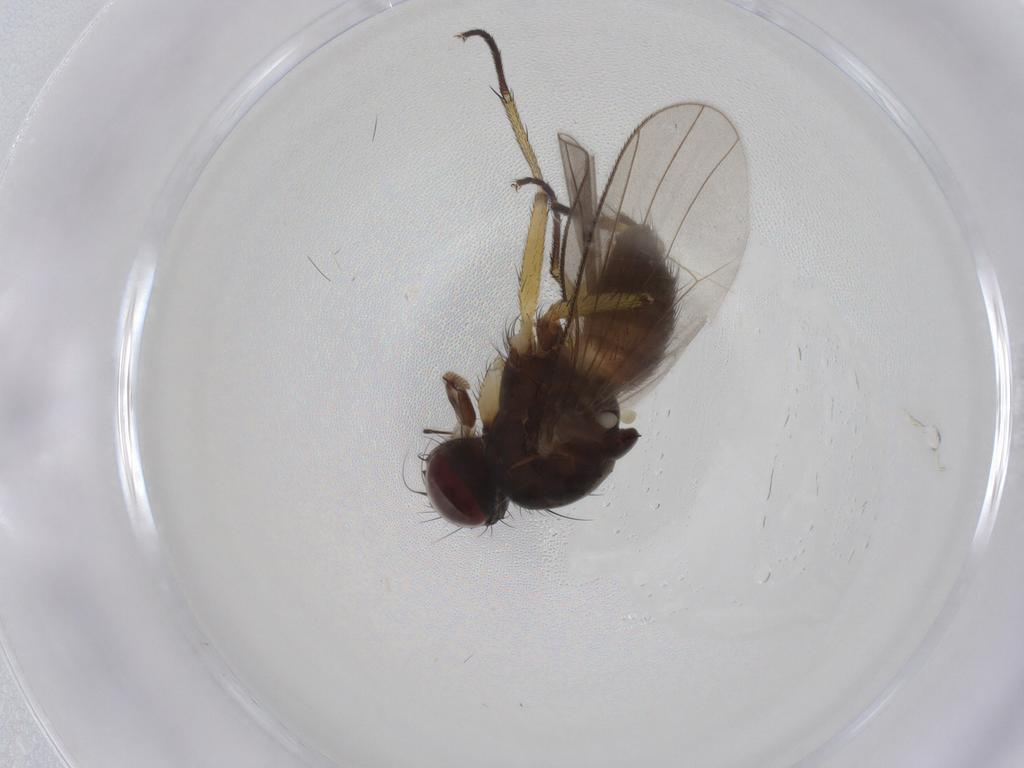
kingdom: Animalia
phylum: Arthropoda
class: Insecta
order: Diptera
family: Muscidae
